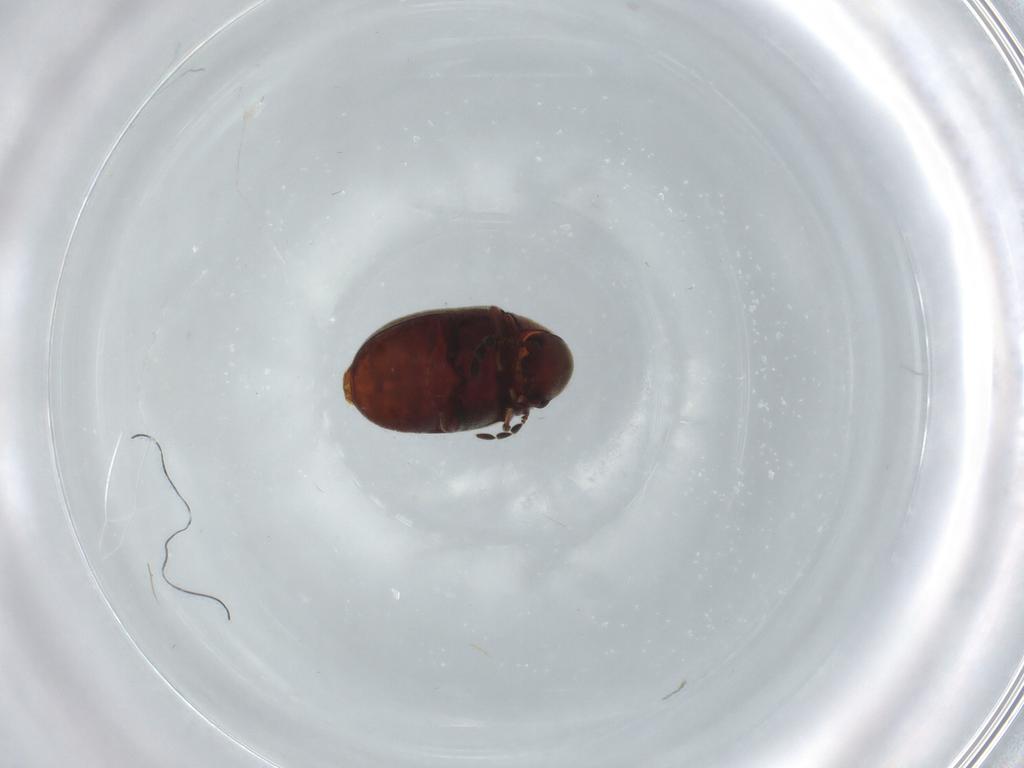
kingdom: Animalia
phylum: Arthropoda
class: Insecta
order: Coleoptera
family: Ptinidae
